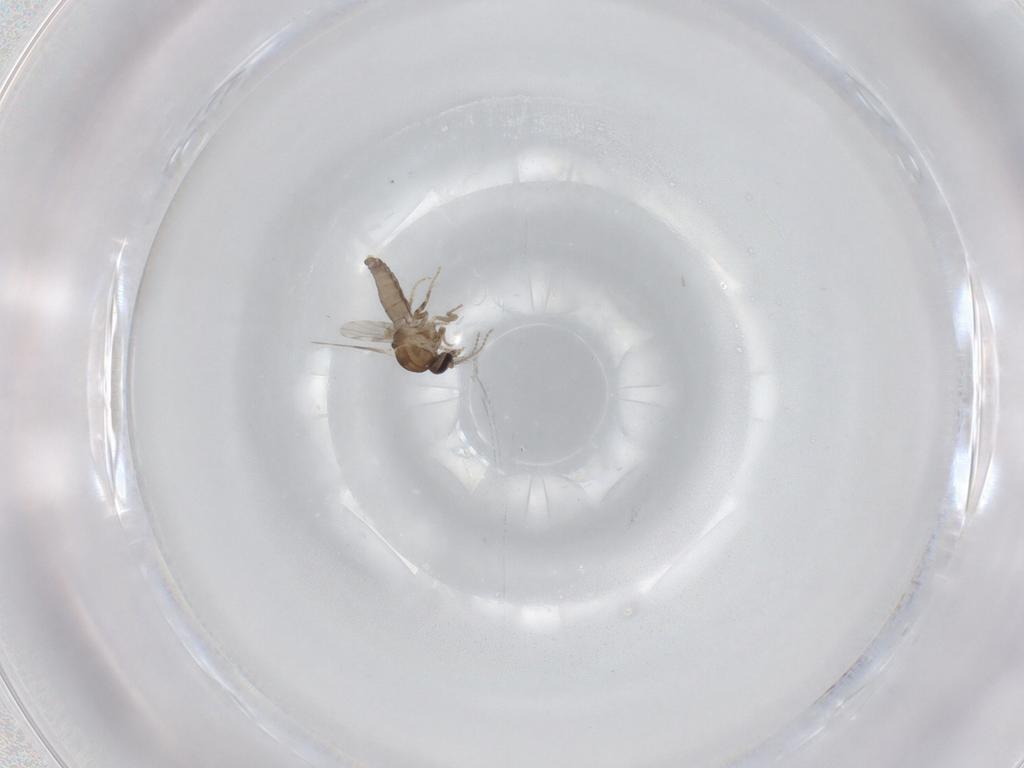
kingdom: Animalia
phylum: Arthropoda
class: Insecta
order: Diptera
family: Ceratopogonidae
